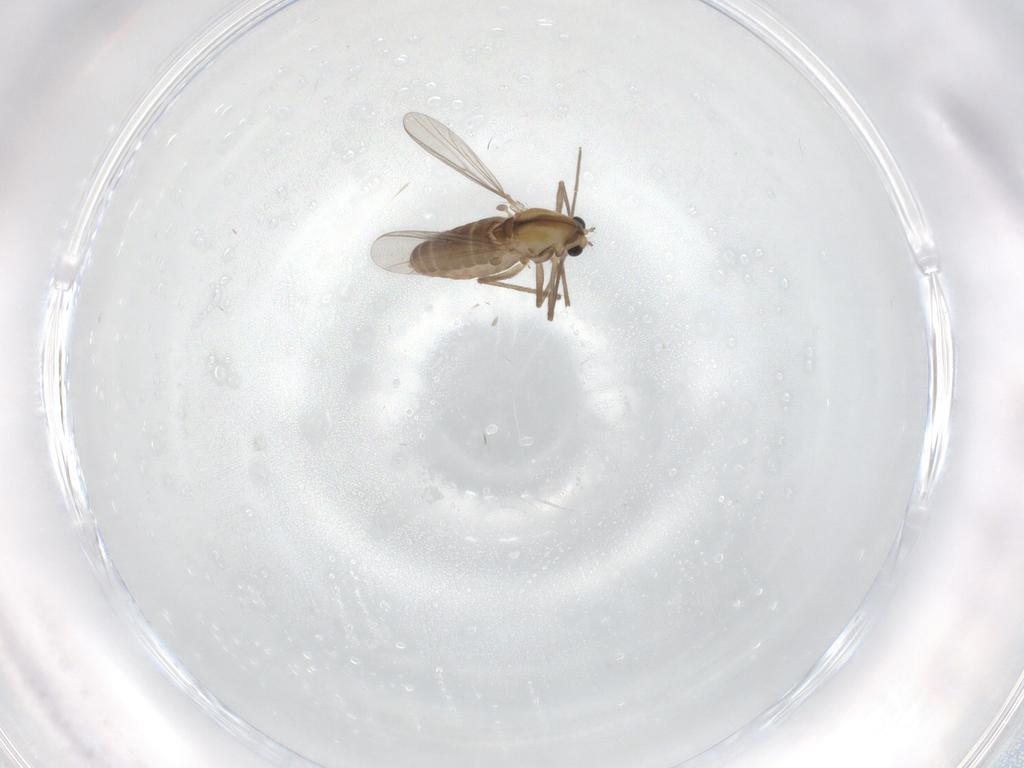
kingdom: Animalia
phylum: Arthropoda
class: Insecta
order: Diptera
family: Chironomidae
